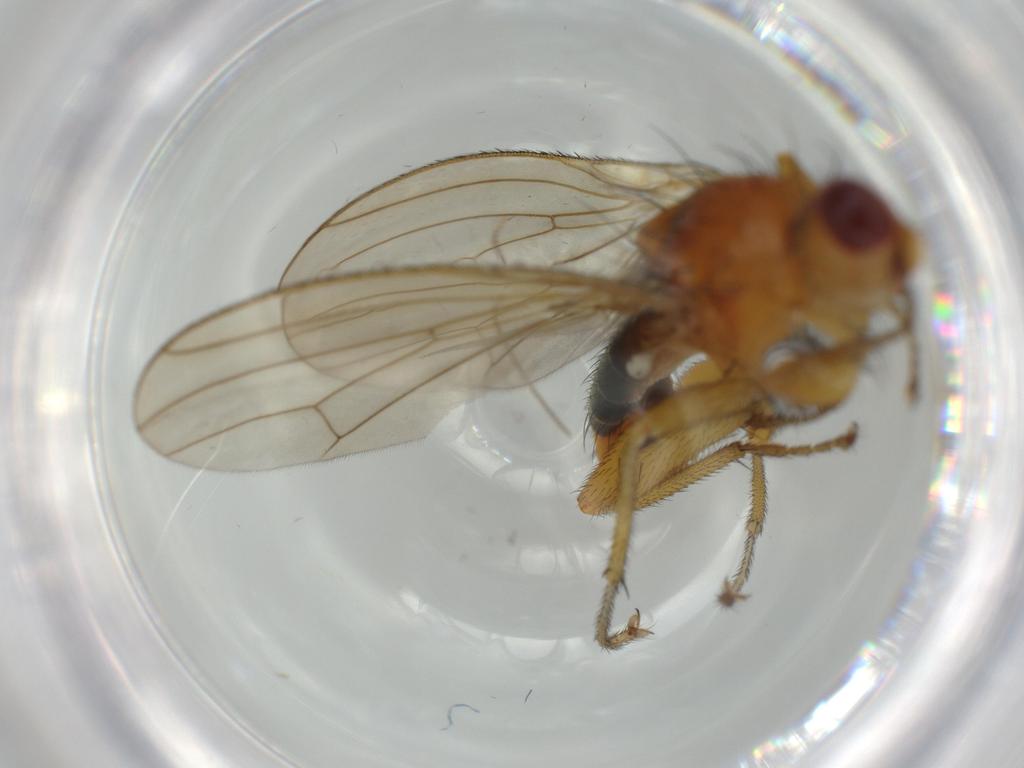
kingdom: Animalia
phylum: Arthropoda
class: Insecta
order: Diptera
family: Heleomyzidae
